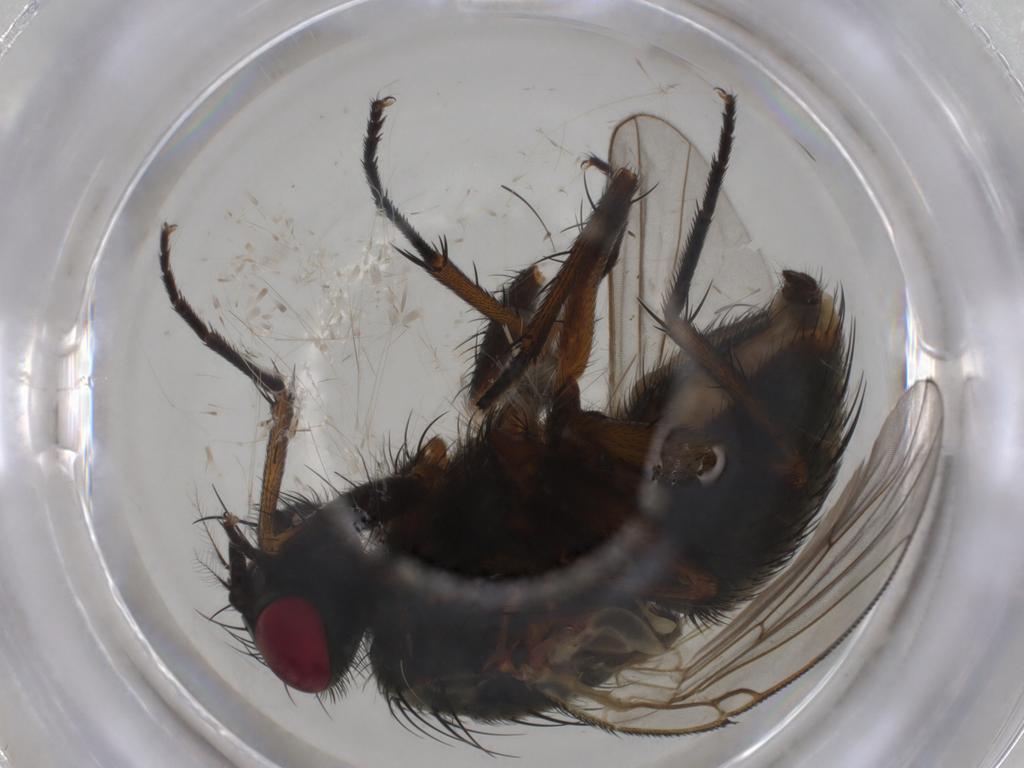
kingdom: Animalia
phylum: Arthropoda
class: Insecta
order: Diptera
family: Muscidae
